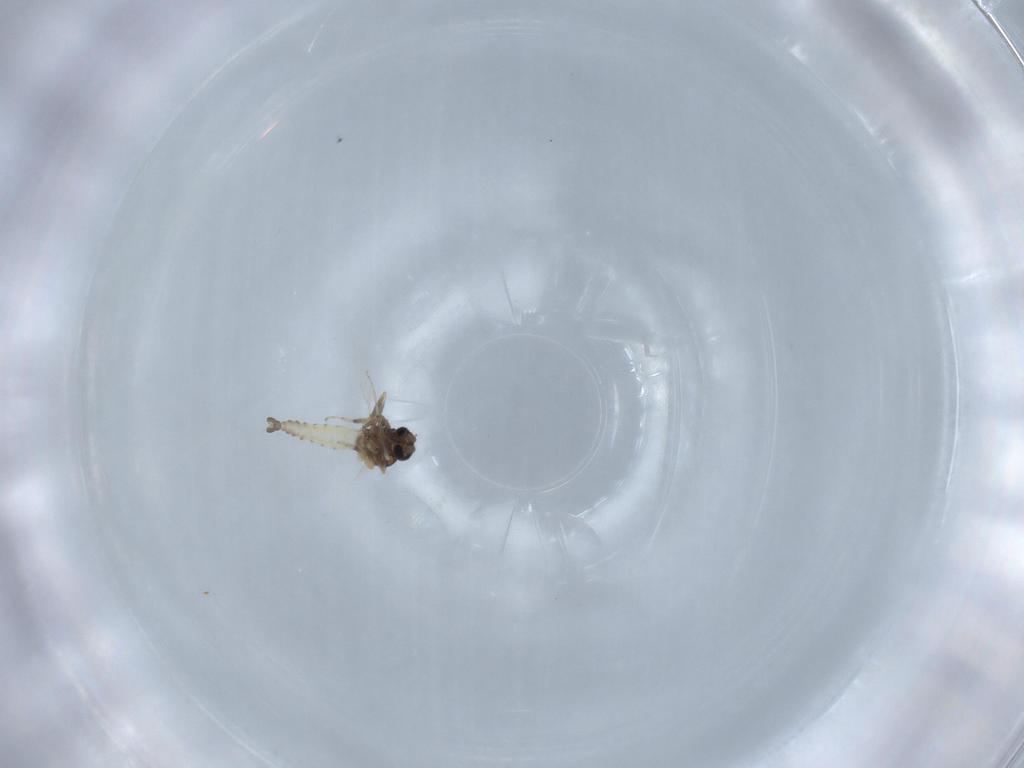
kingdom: Animalia
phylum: Arthropoda
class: Insecta
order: Diptera
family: Ceratopogonidae
